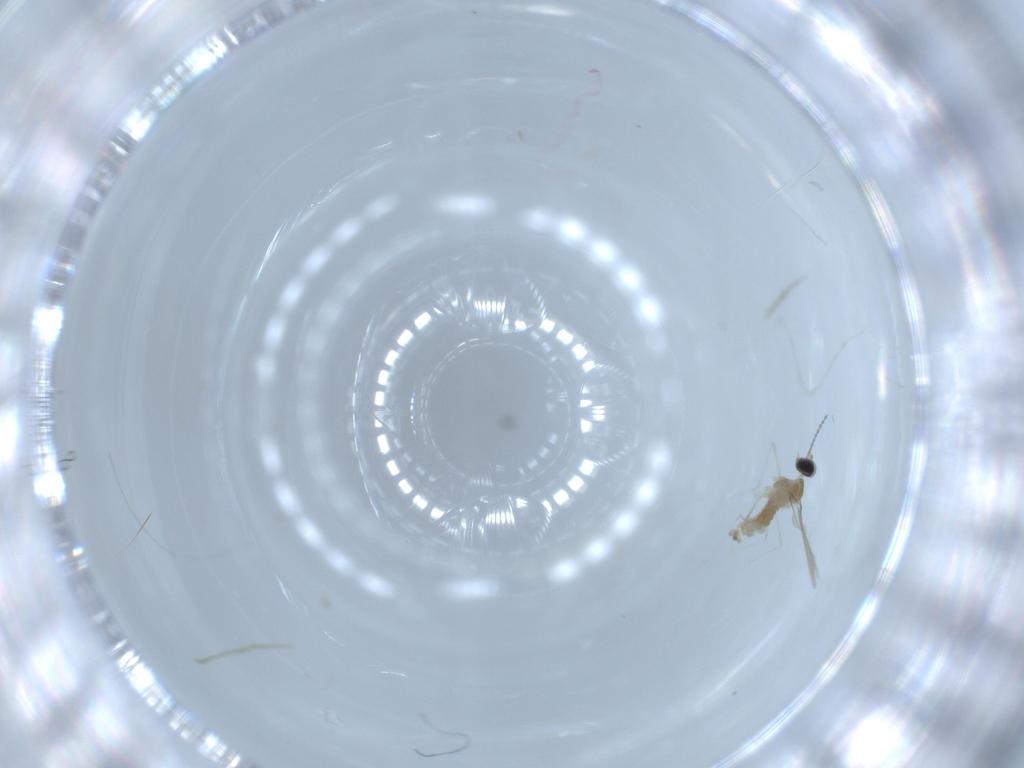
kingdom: Animalia
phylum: Arthropoda
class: Insecta
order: Diptera
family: Cecidomyiidae
